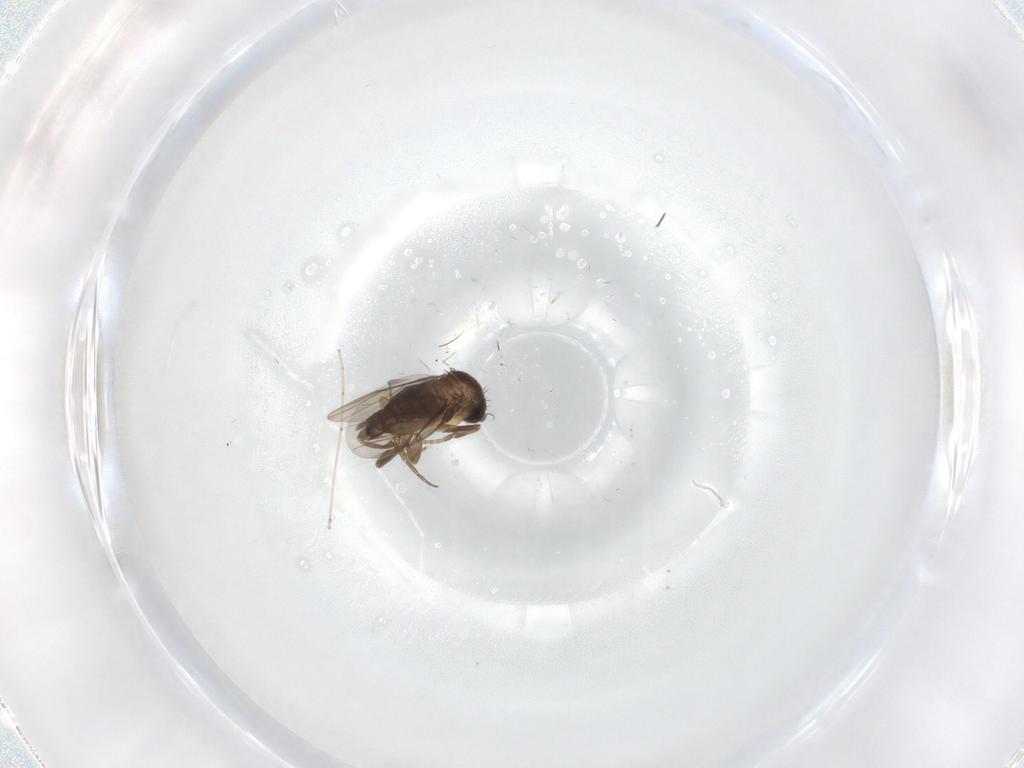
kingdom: Animalia
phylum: Arthropoda
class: Insecta
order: Diptera
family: Cecidomyiidae
